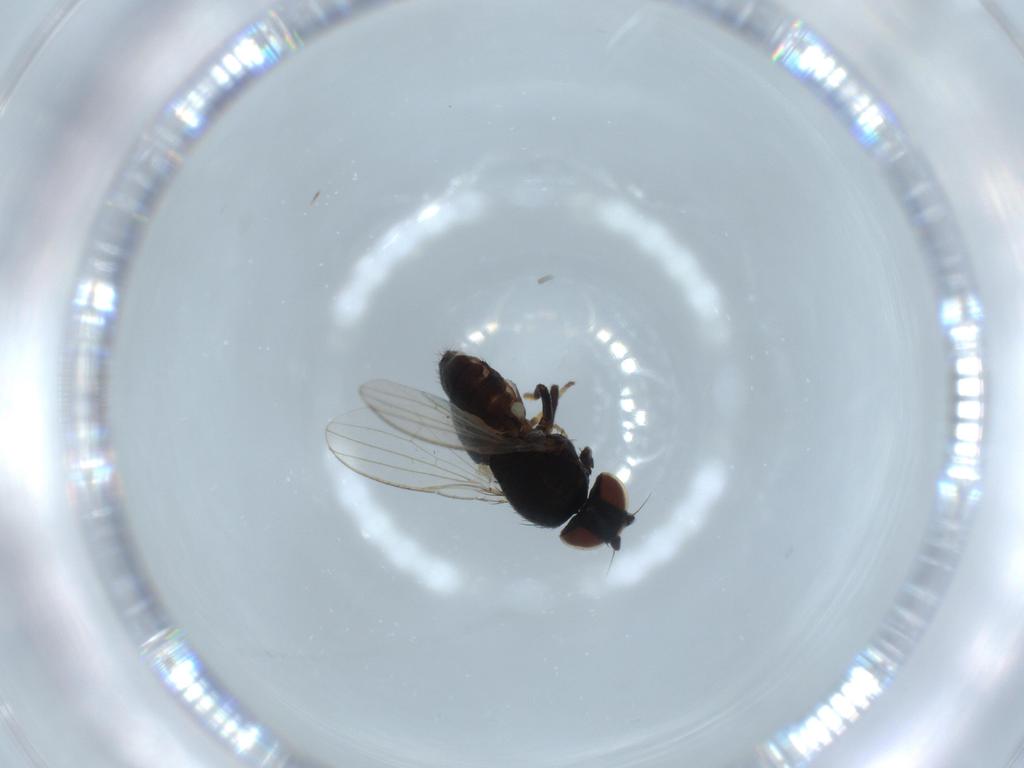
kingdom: Animalia
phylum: Arthropoda
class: Insecta
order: Diptera
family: Milichiidae
